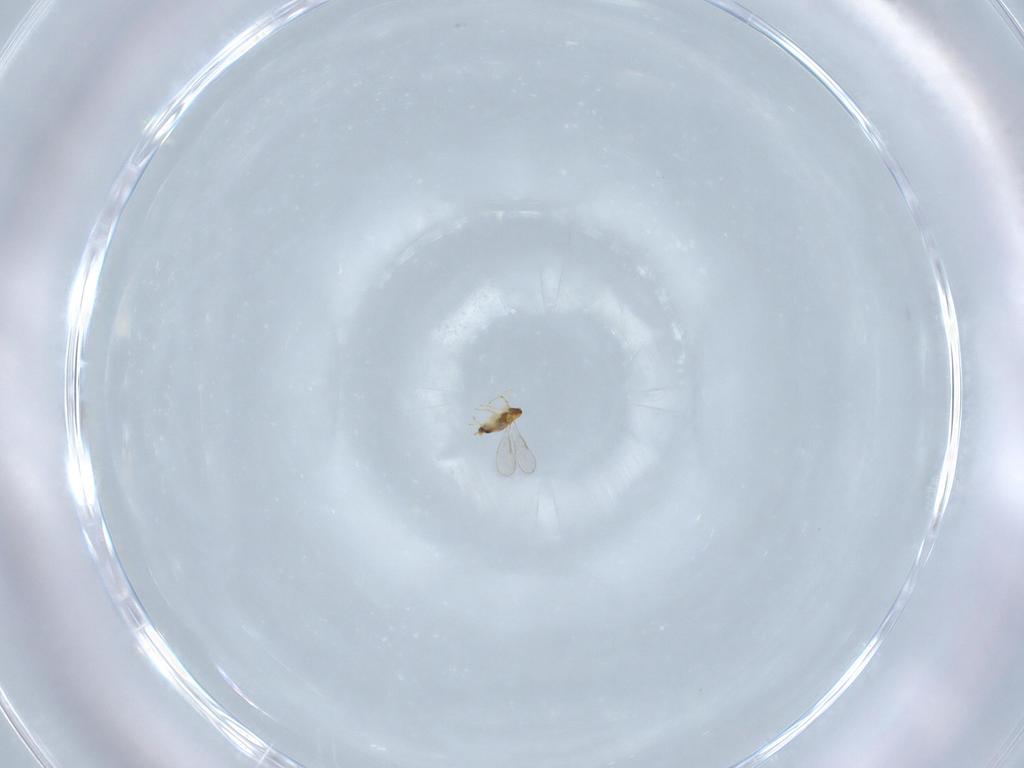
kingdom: Animalia
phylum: Arthropoda
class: Insecta
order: Hymenoptera
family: Aphelinidae
